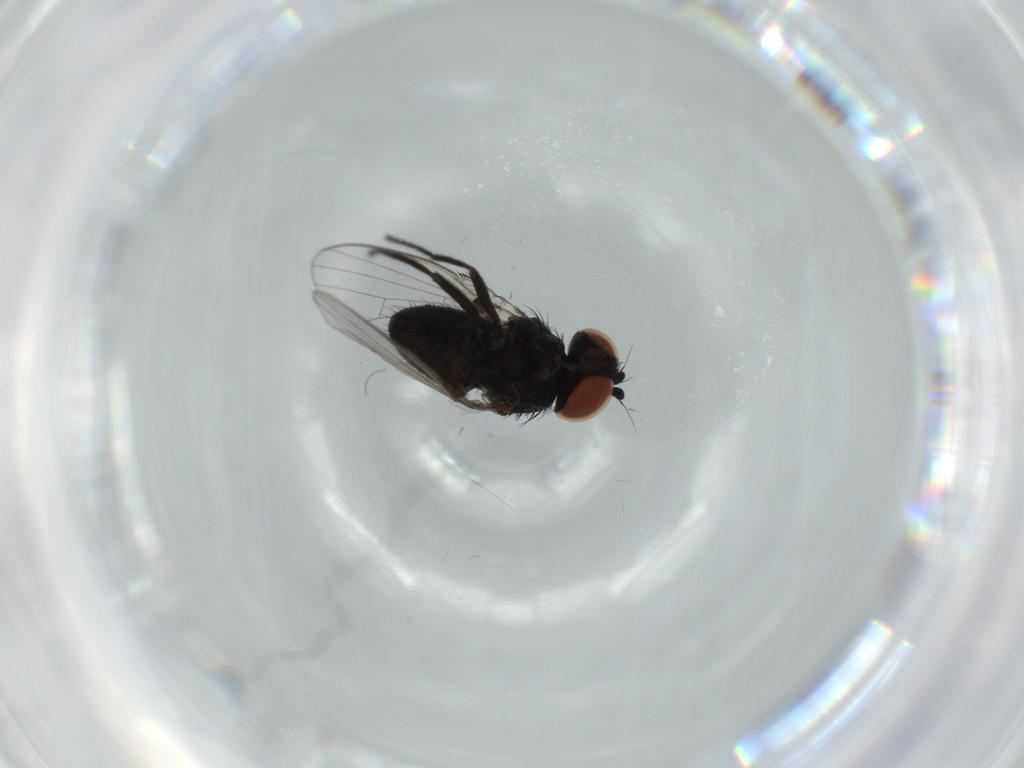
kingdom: Animalia
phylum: Arthropoda
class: Insecta
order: Diptera
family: Milichiidae
